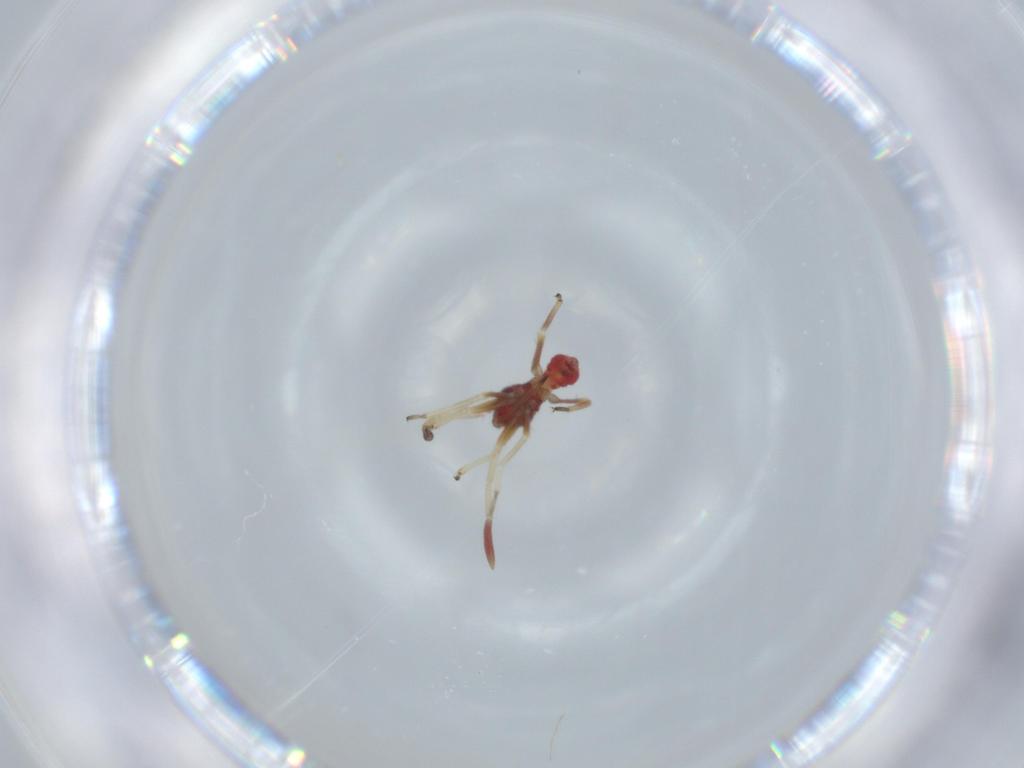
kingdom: Animalia
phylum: Arthropoda
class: Insecta
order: Hemiptera
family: Miridae
